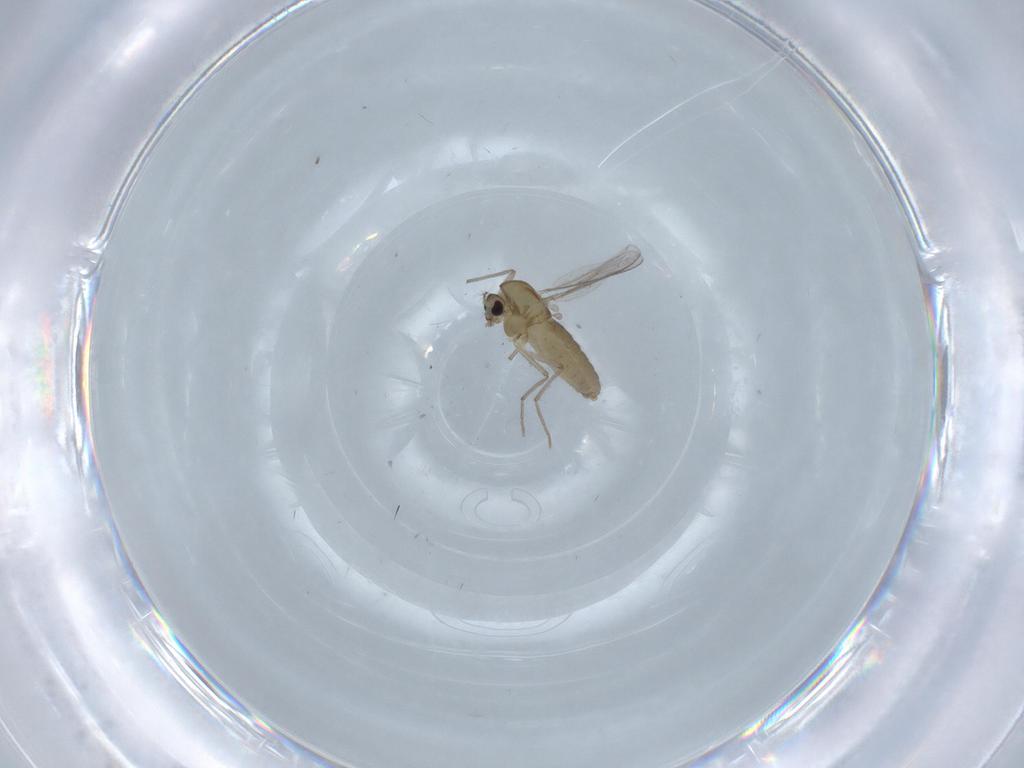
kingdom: Animalia
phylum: Arthropoda
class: Insecta
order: Diptera
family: Chironomidae
